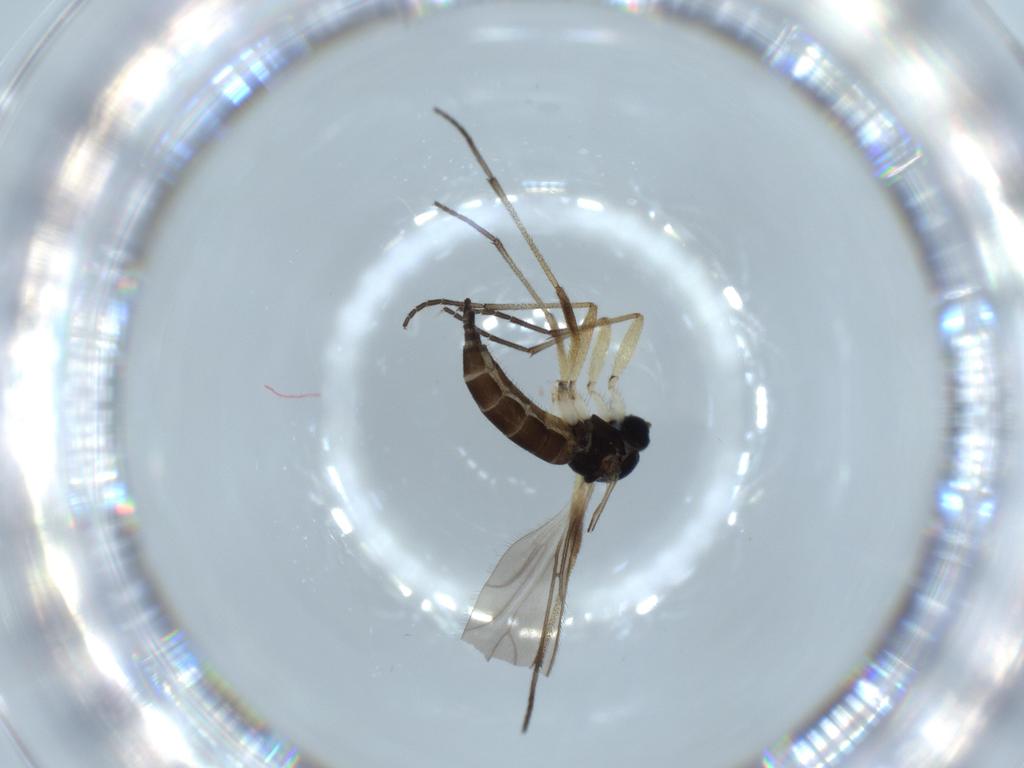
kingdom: Animalia
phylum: Arthropoda
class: Insecta
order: Diptera
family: Sciaridae
